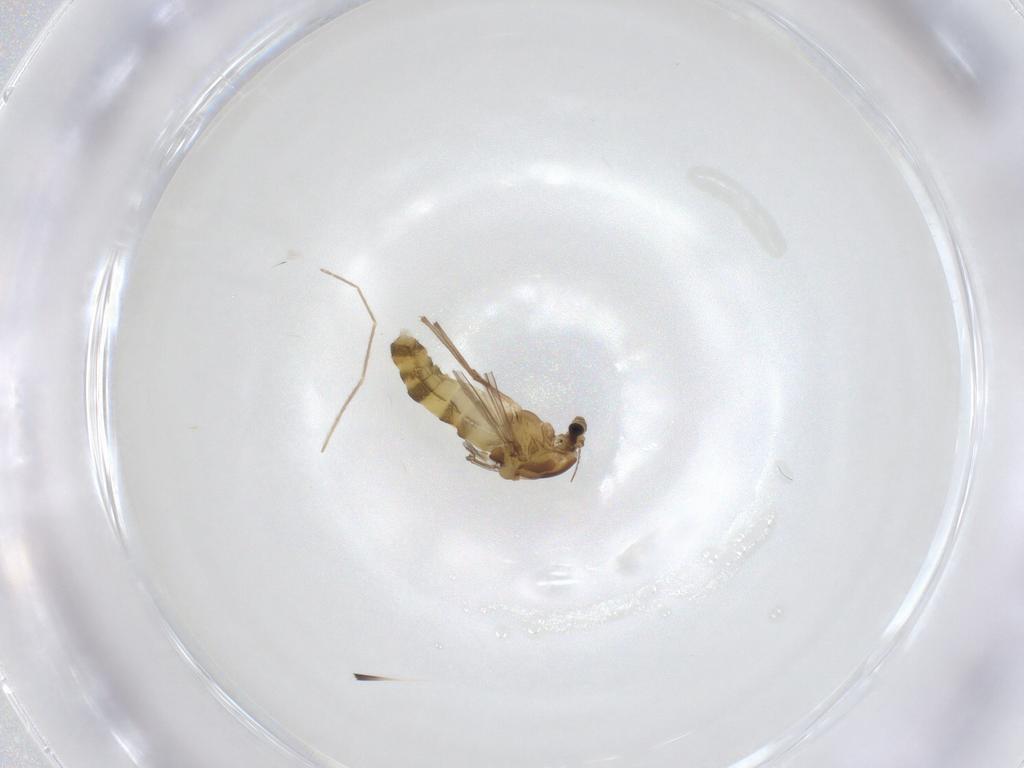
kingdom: Animalia
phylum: Arthropoda
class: Insecta
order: Diptera
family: Chironomidae
